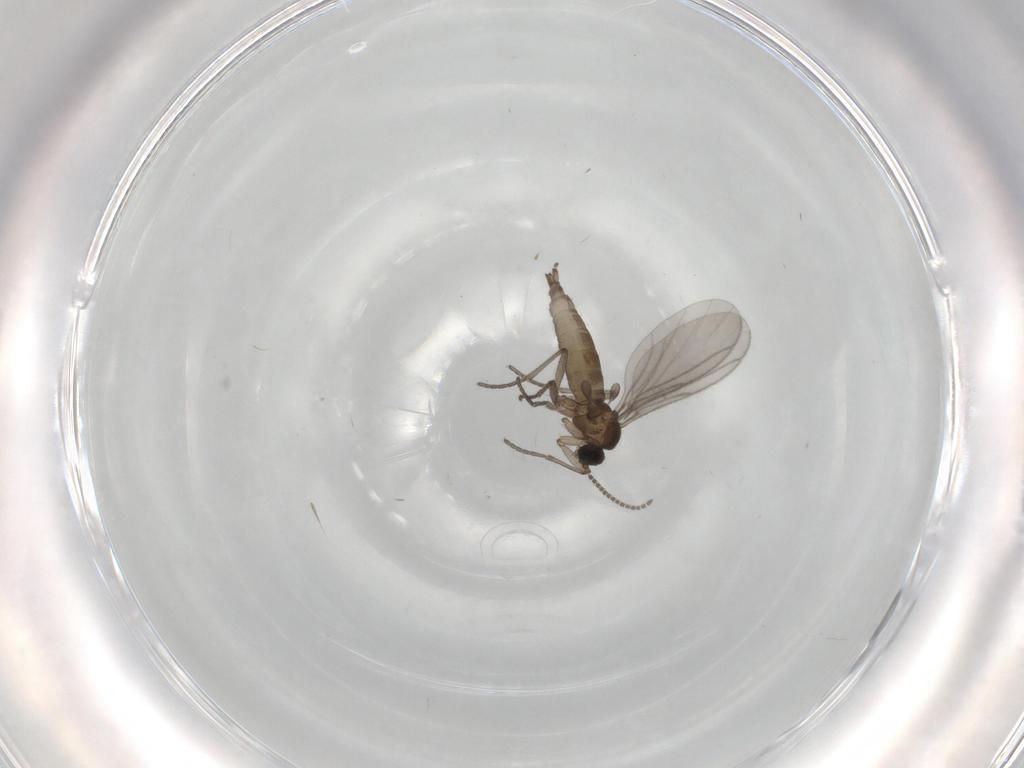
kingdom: Animalia
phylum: Arthropoda
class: Insecta
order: Diptera
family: Sciaridae
